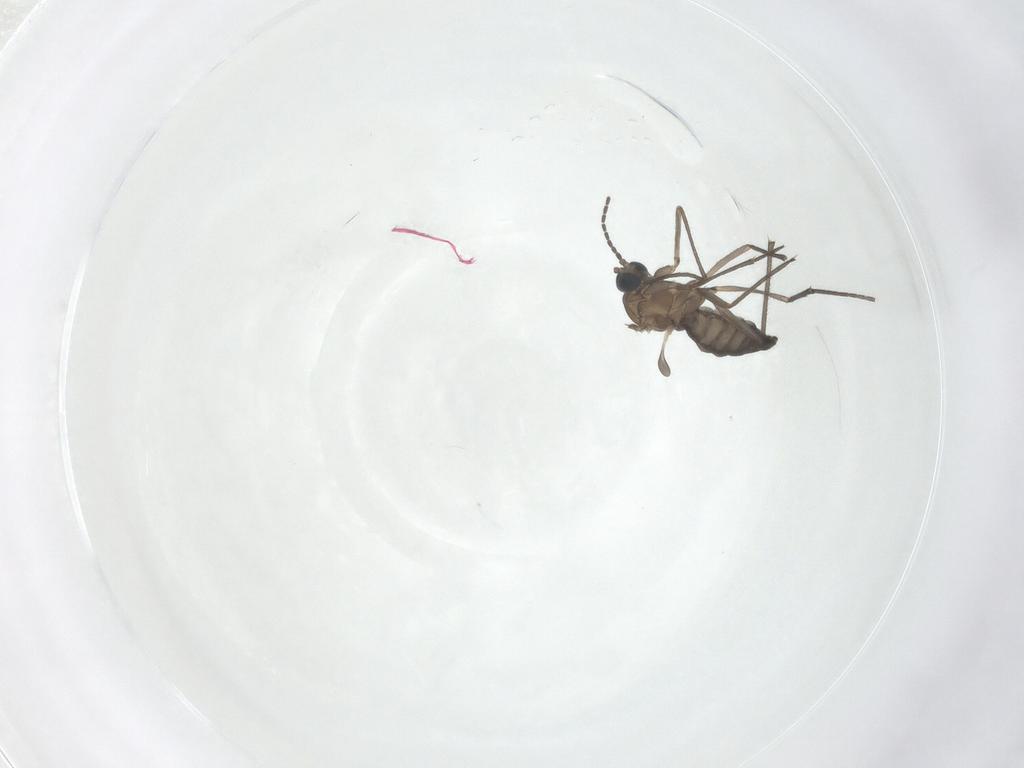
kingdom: Animalia
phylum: Arthropoda
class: Insecta
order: Diptera
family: Sciaridae
